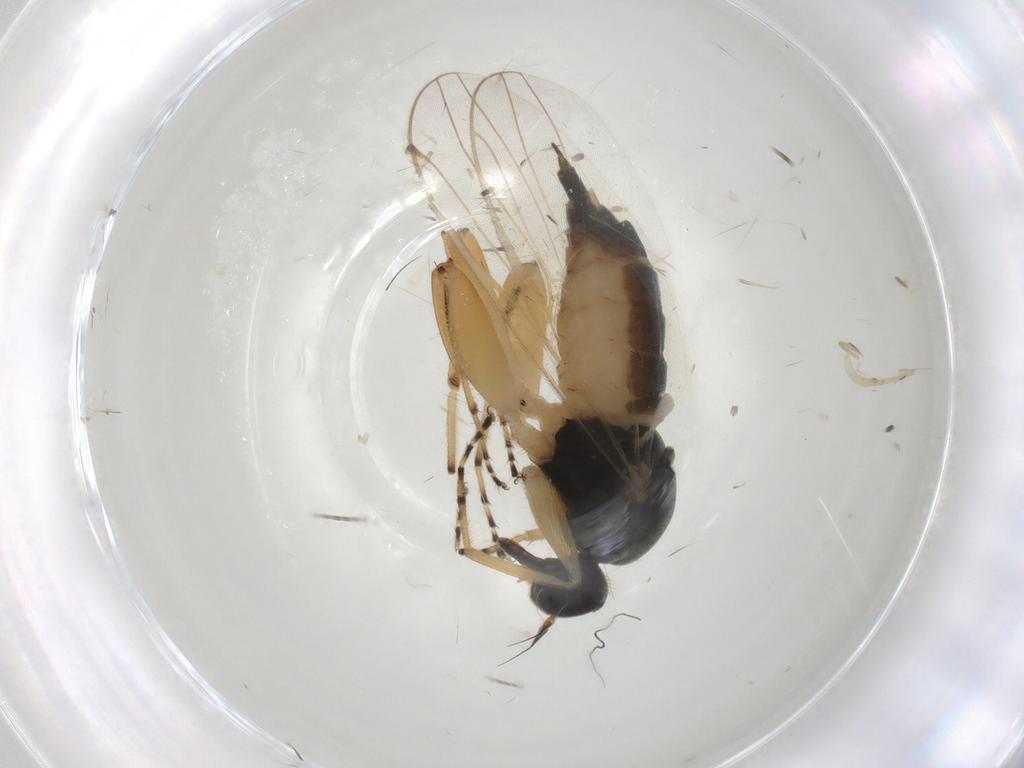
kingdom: Animalia
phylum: Arthropoda
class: Insecta
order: Diptera
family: Hybotidae
